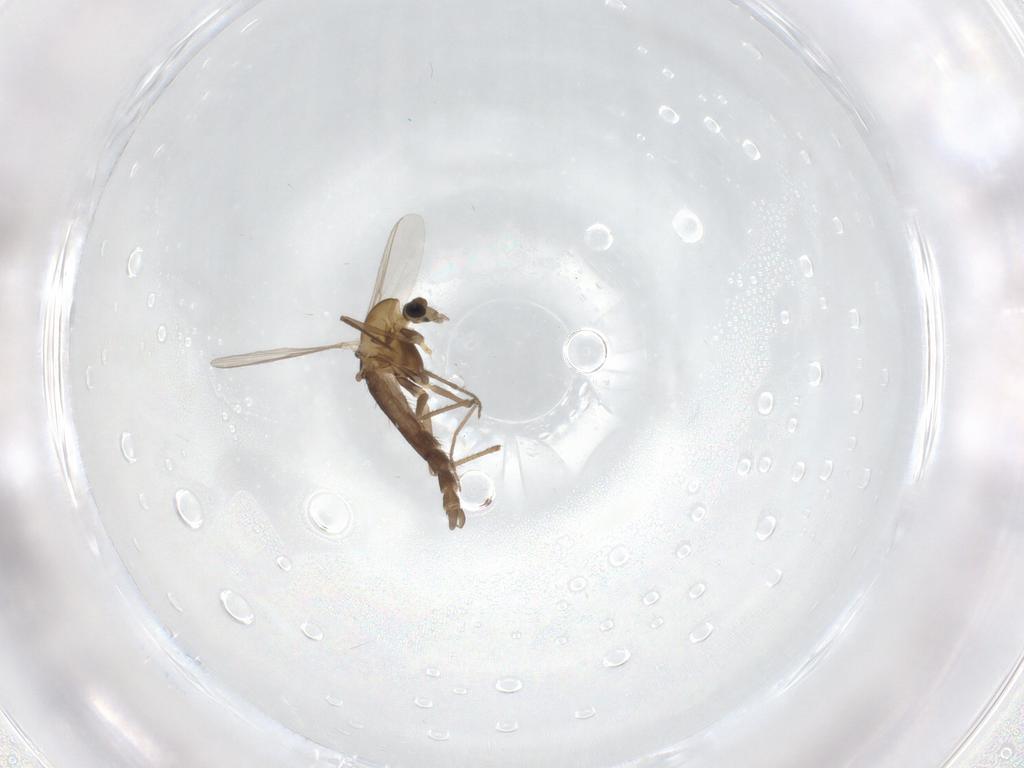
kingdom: Animalia
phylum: Arthropoda
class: Insecta
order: Diptera
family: Chironomidae
